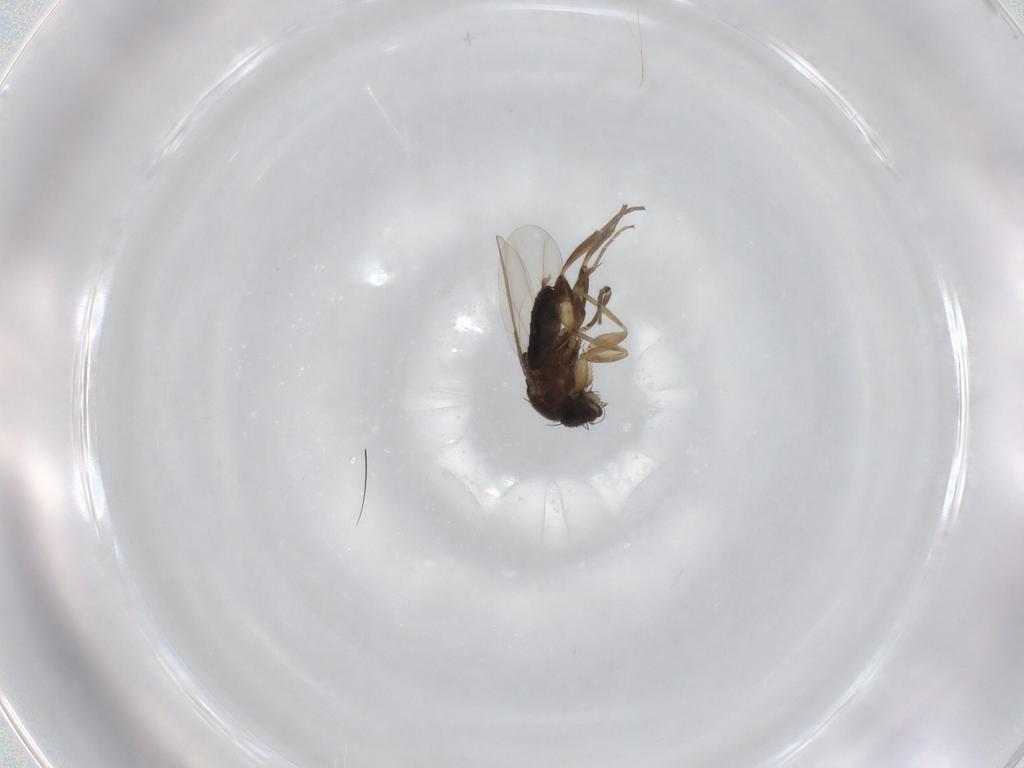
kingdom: Animalia
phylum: Arthropoda
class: Insecta
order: Diptera
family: Phoridae
